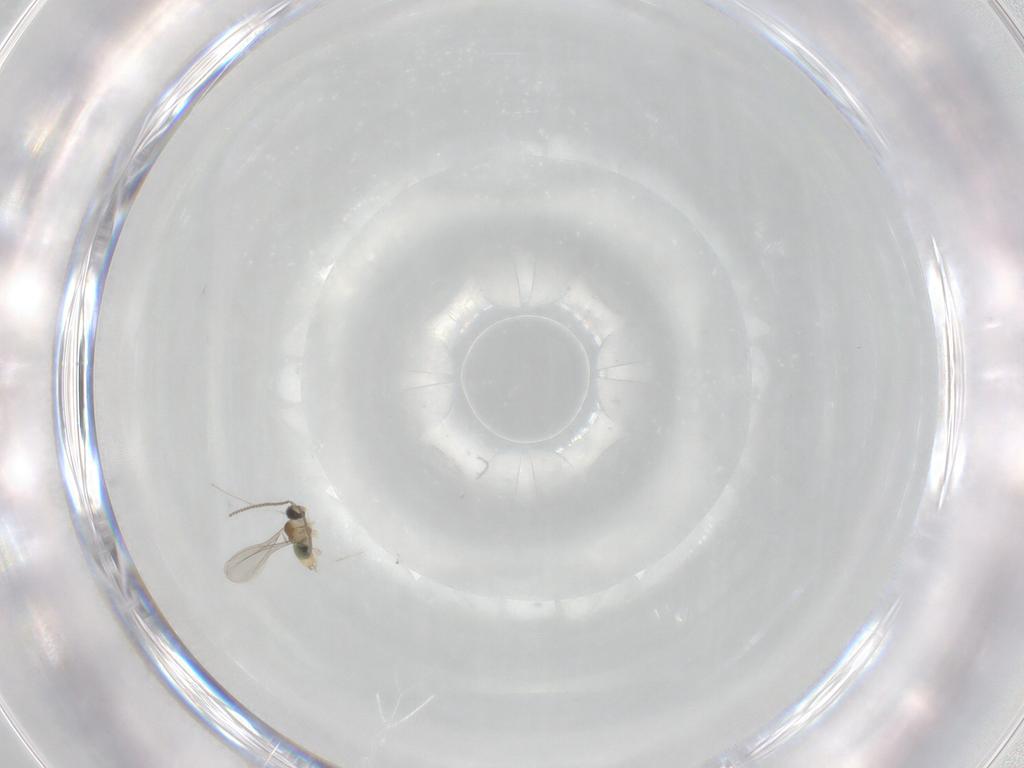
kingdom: Animalia
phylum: Arthropoda
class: Insecta
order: Diptera
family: Cecidomyiidae
